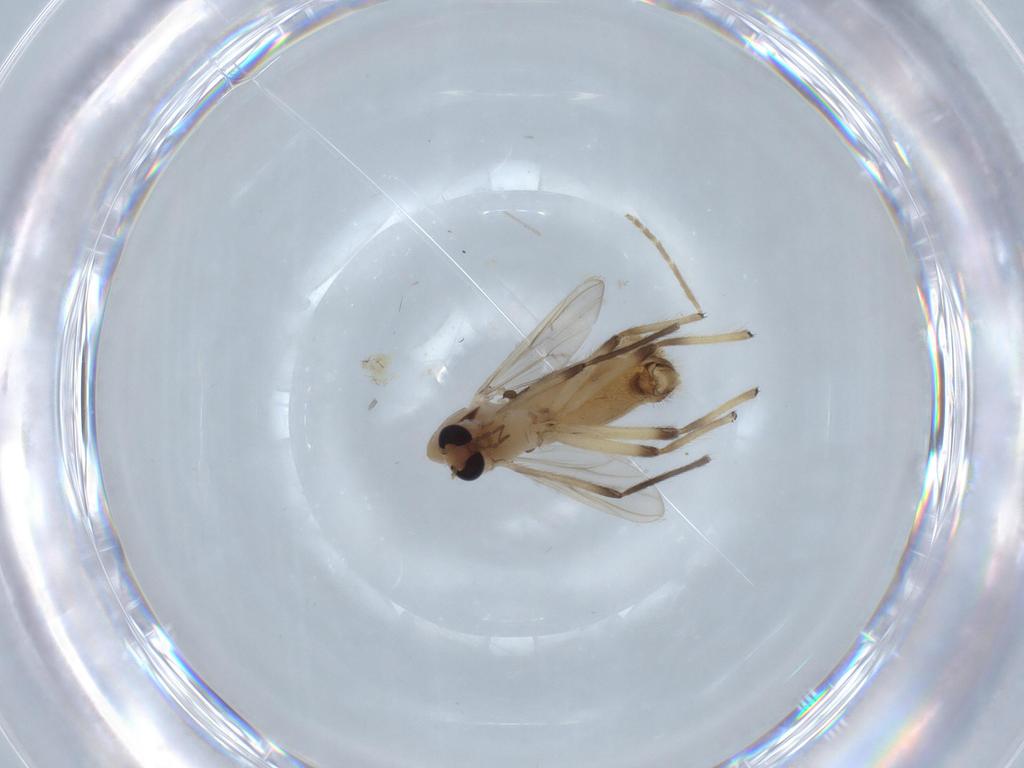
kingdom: Animalia
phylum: Arthropoda
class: Insecta
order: Diptera
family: Chironomidae
